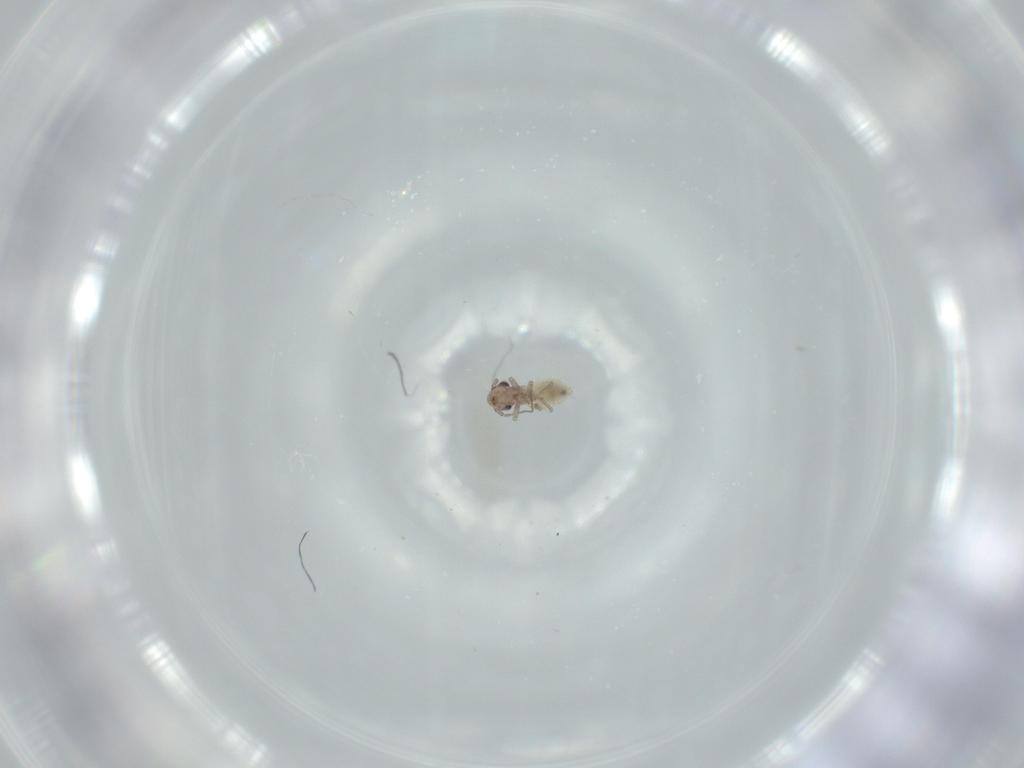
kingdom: Animalia
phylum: Arthropoda
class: Insecta
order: Psocodea
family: Lepidopsocidae
